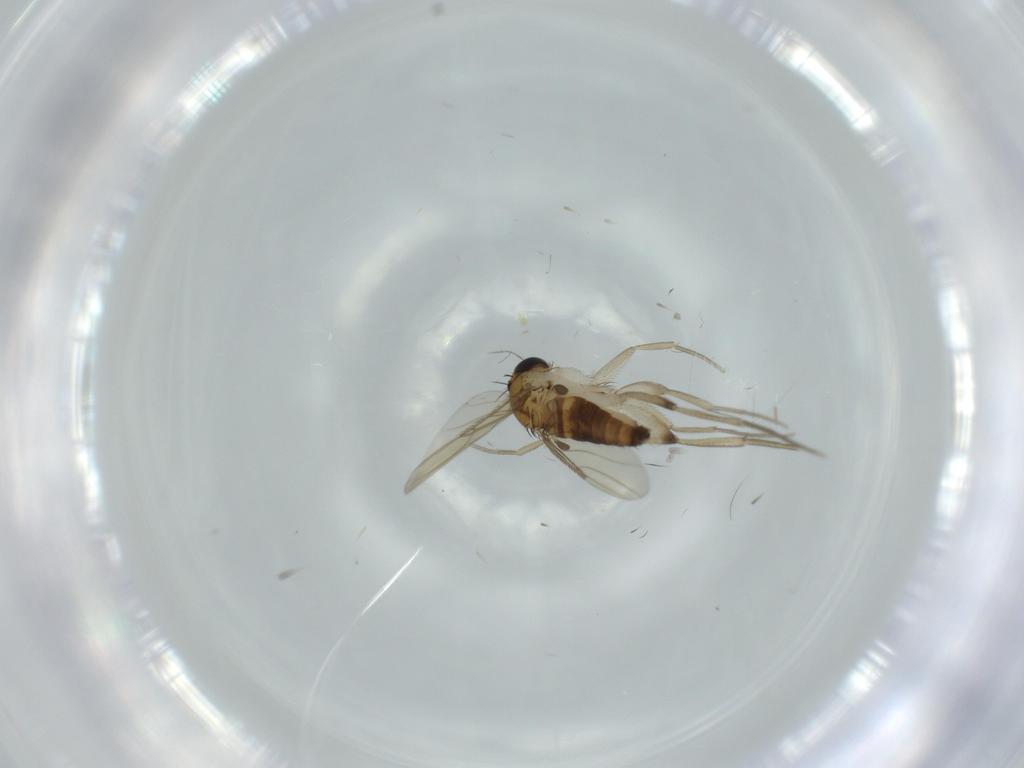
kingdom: Animalia
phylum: Arthropoda
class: Insecta
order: Diptera
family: Phoridae
